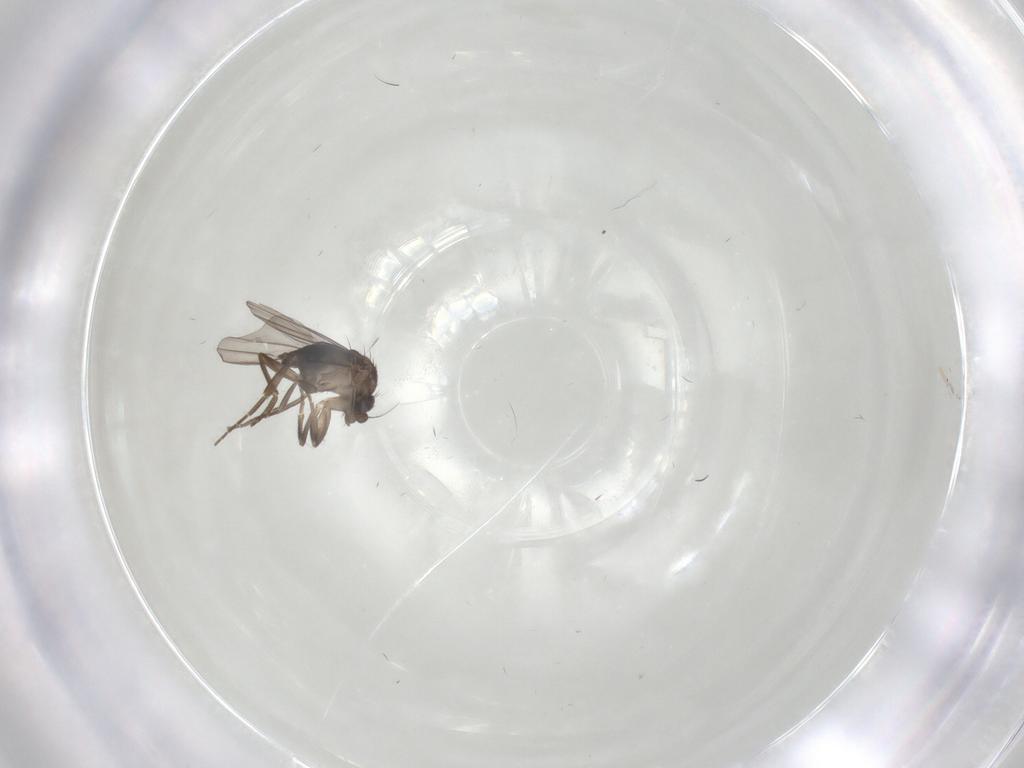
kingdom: Animalia
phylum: Arthropoda
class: Insecta
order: Diptera
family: Ceratopogonidae
